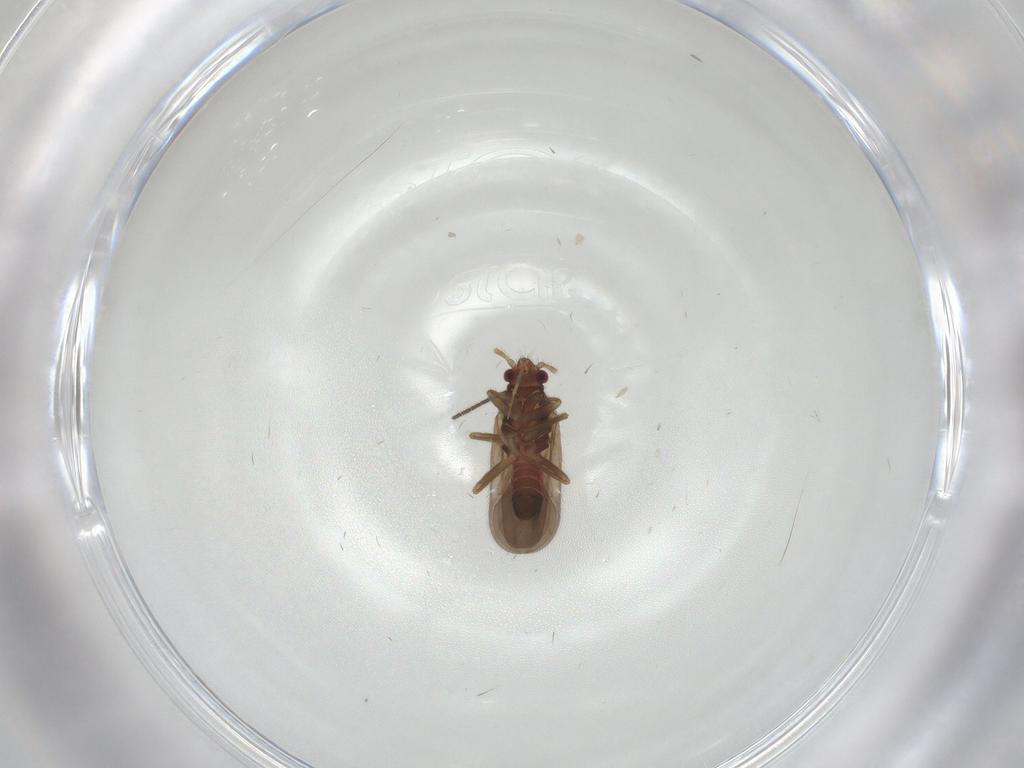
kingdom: Animalia
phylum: Arthropoda
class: Insecta
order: Hemiptera
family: Ceratocombidae
